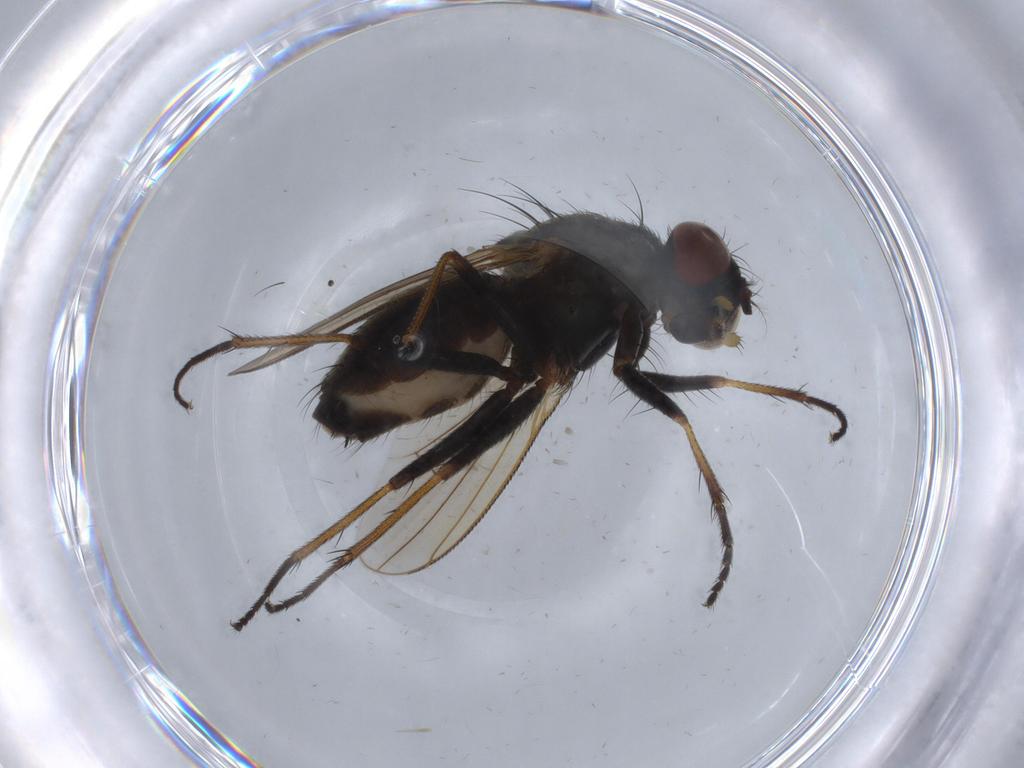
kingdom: Animalia
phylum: Arthropoda
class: Insecta
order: Diptera
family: Muscidae
